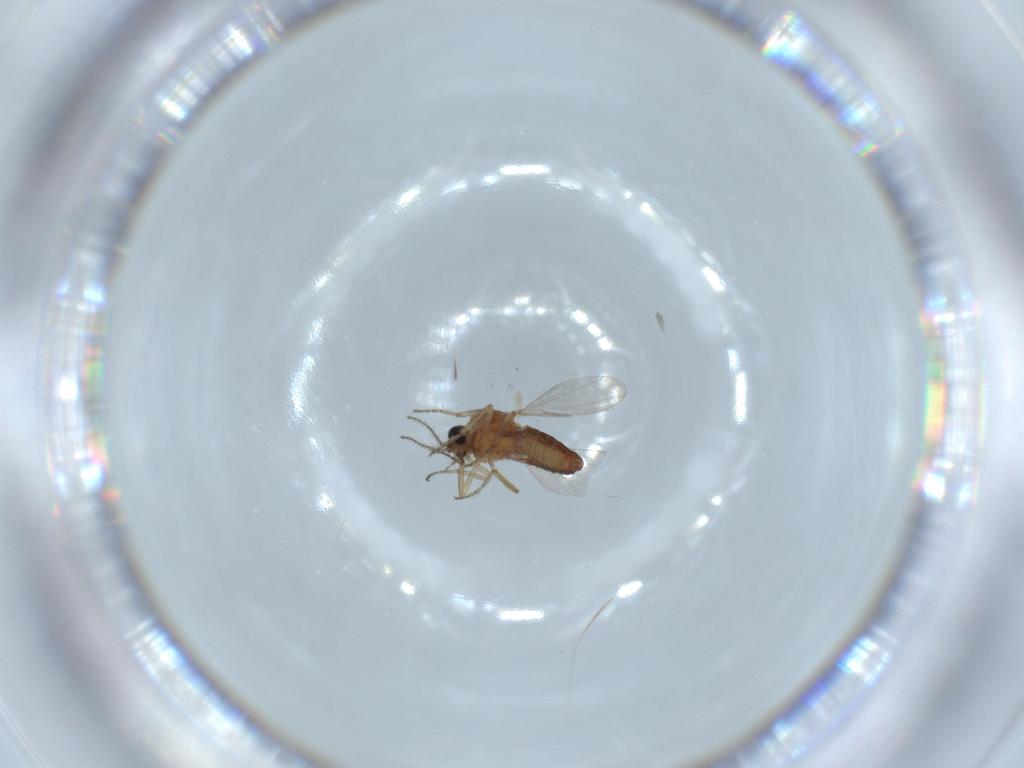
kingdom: Animalia
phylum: Arthropoda
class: Insecta
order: Diptera
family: Ceratopogonidae
